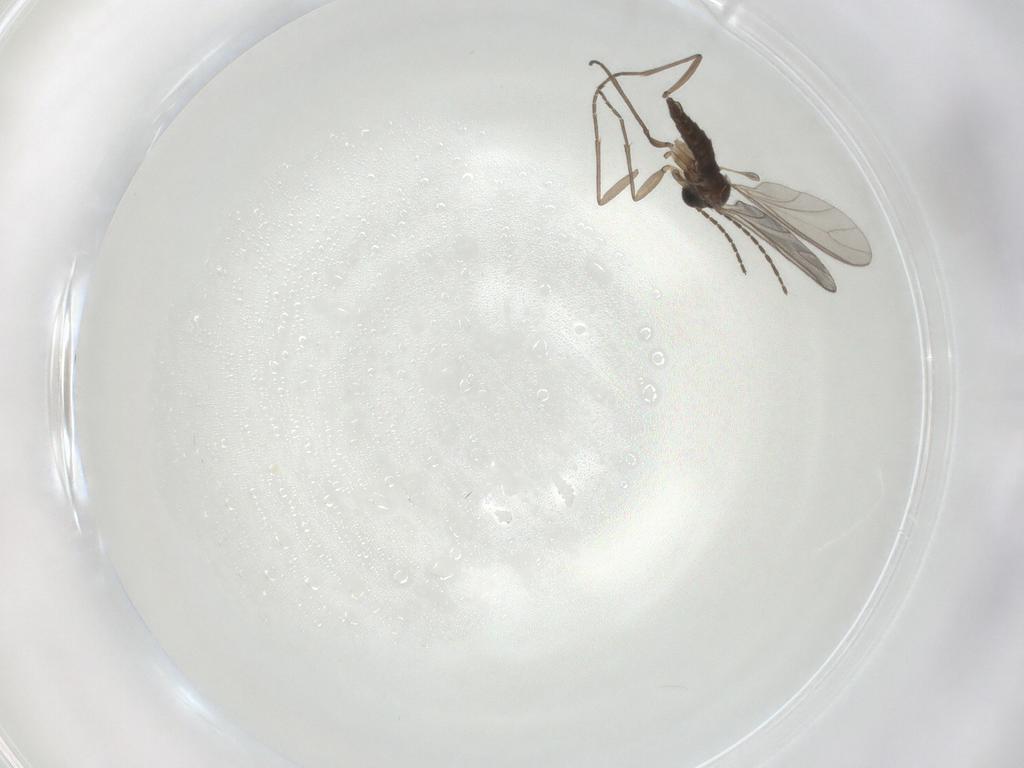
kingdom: Animalia
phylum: Arthropoda
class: Insecta
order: Diptera
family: Sciaridae
